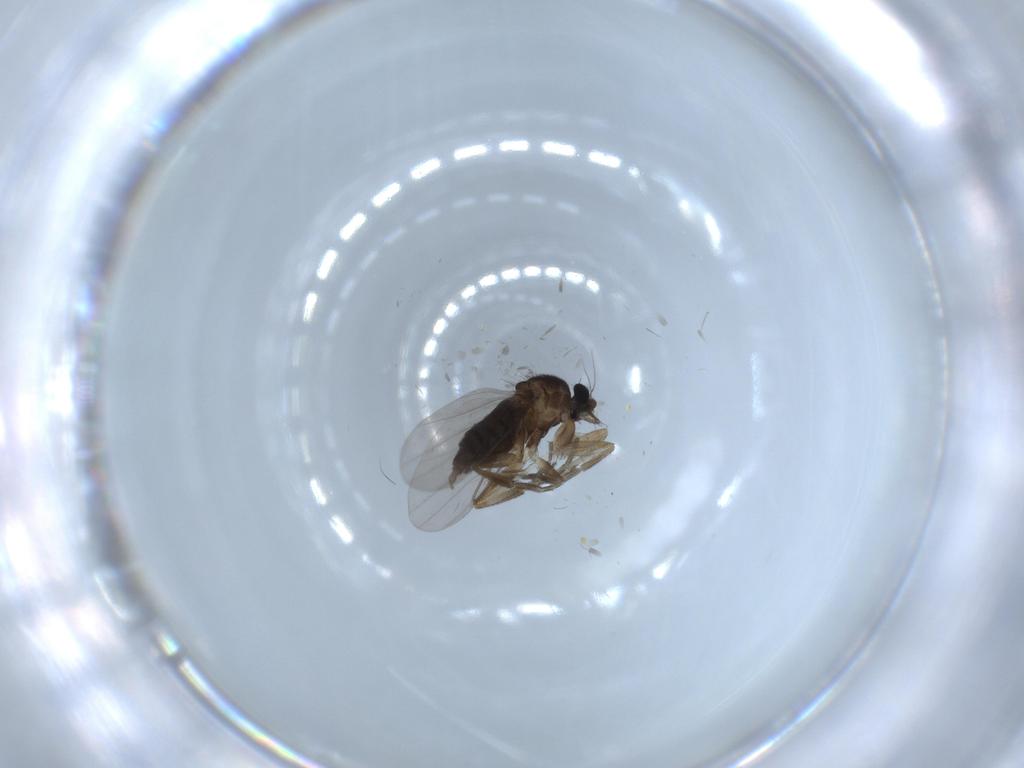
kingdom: Animalia
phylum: Arthropoda
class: Insecta
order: Diptera
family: Cecidomyiidae
